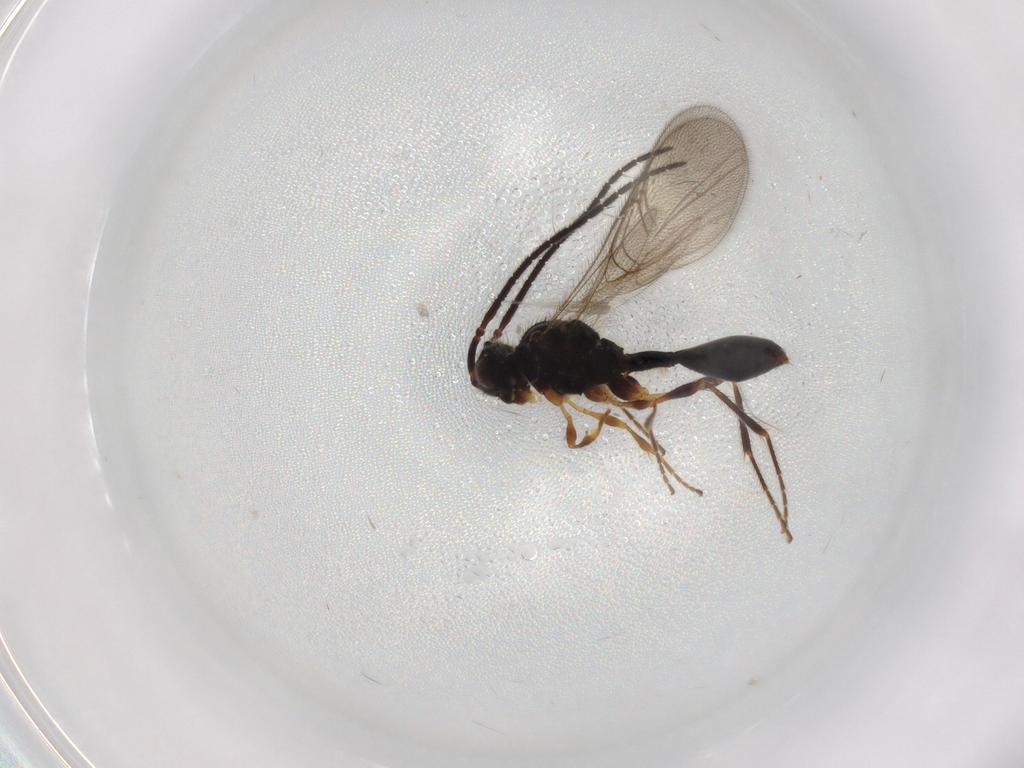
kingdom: Animalia
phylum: Arthropoda
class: Insecta
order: Hymenoptera
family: Diapriidae
